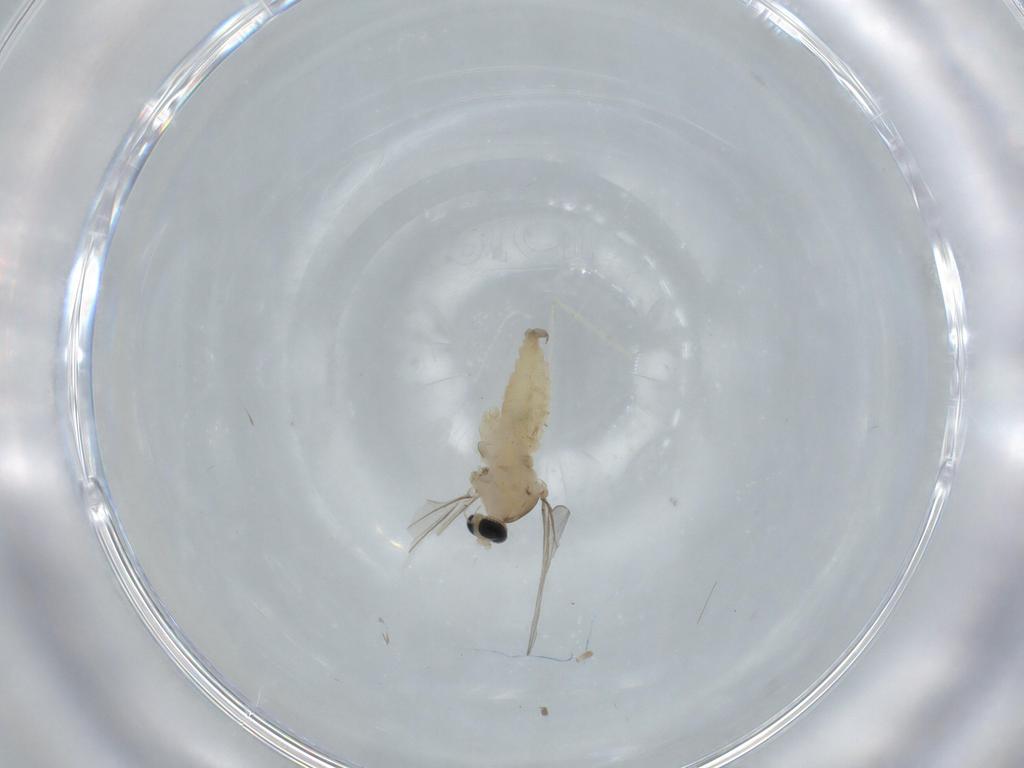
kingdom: Animalia
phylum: Arthropoda
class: Insecta
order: Diptera
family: Cecidomyiidae
